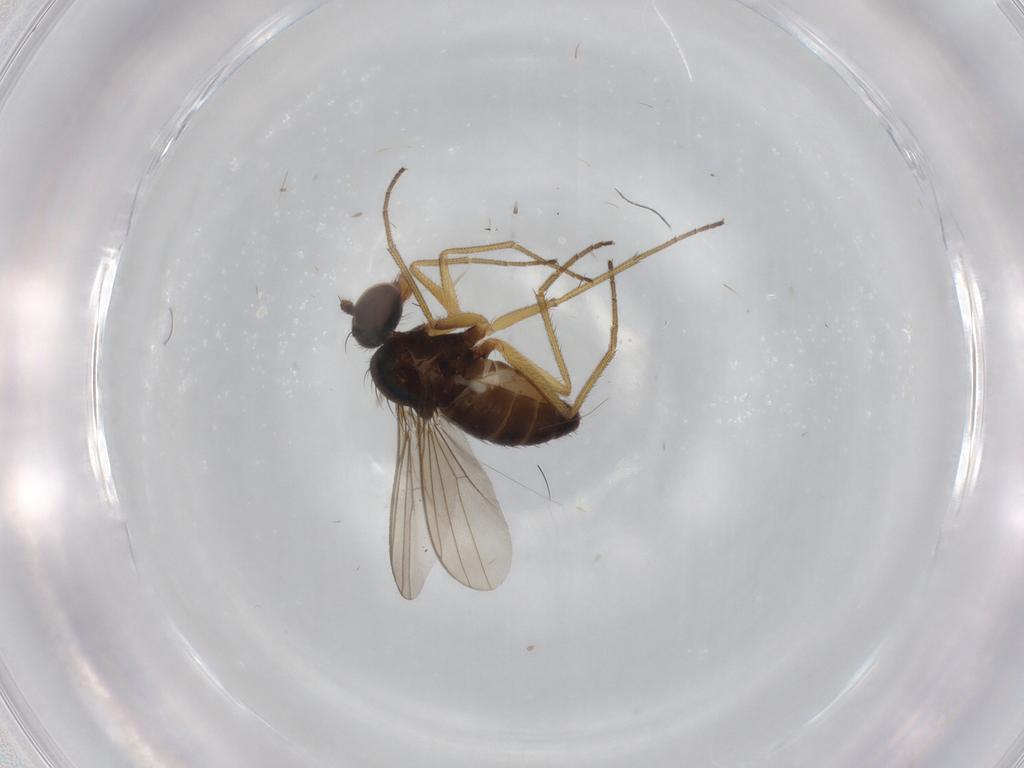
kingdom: Animalia
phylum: Arthropoda
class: Insecta
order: Diptera
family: Dolichopodidae
